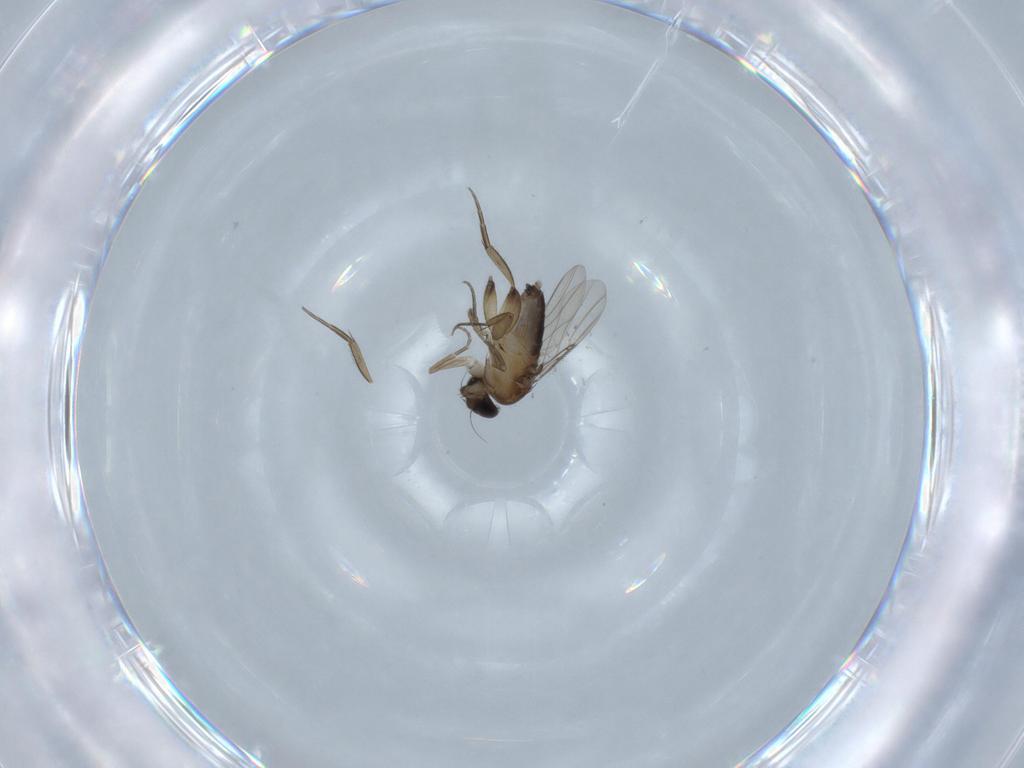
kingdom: Animalia
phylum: Arthropoda
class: Insecta
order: Diptera
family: Phoridae
